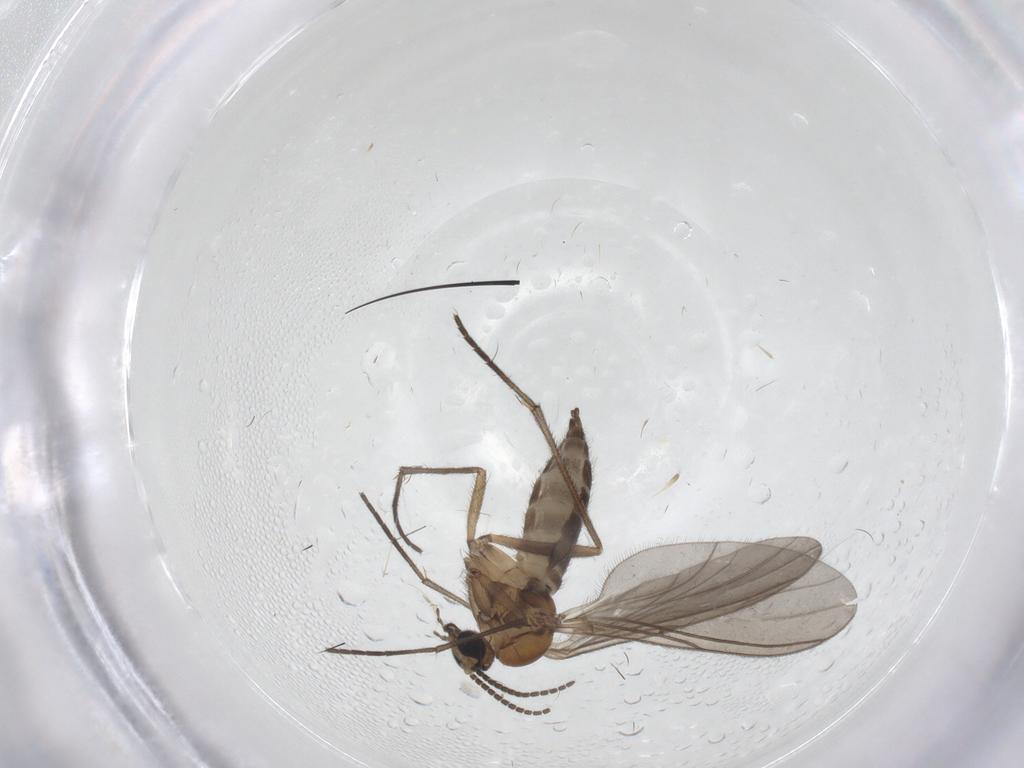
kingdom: Animalia
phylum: Arthropoda
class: Insecta
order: Diptera
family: Sciaridae
